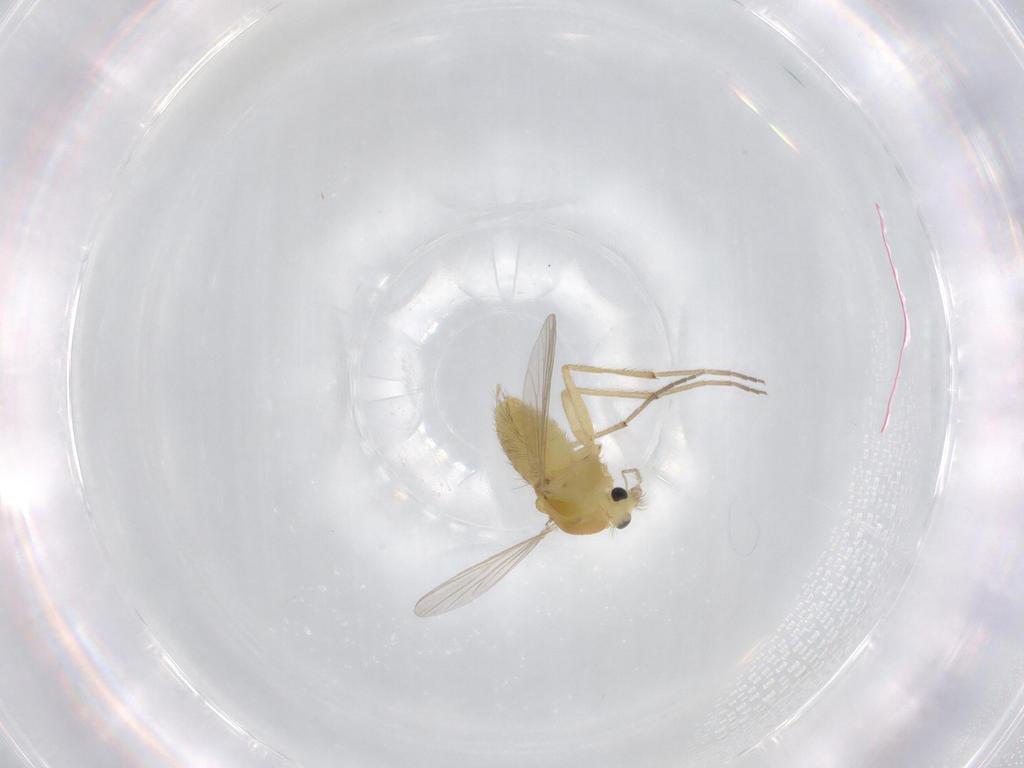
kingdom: Animalia
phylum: Arthropoda
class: Insecta
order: Diptera
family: Chironomidae
